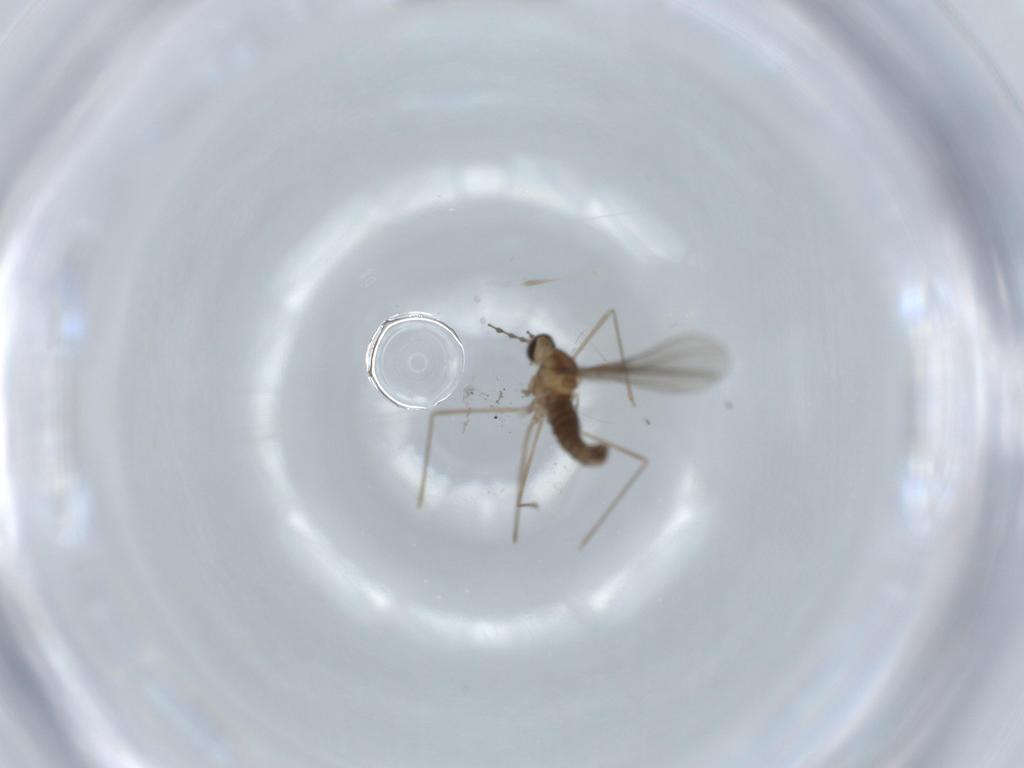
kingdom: Animalia
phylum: Arthropoda
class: Insecta
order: Diptera
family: Cecidomyiidae
